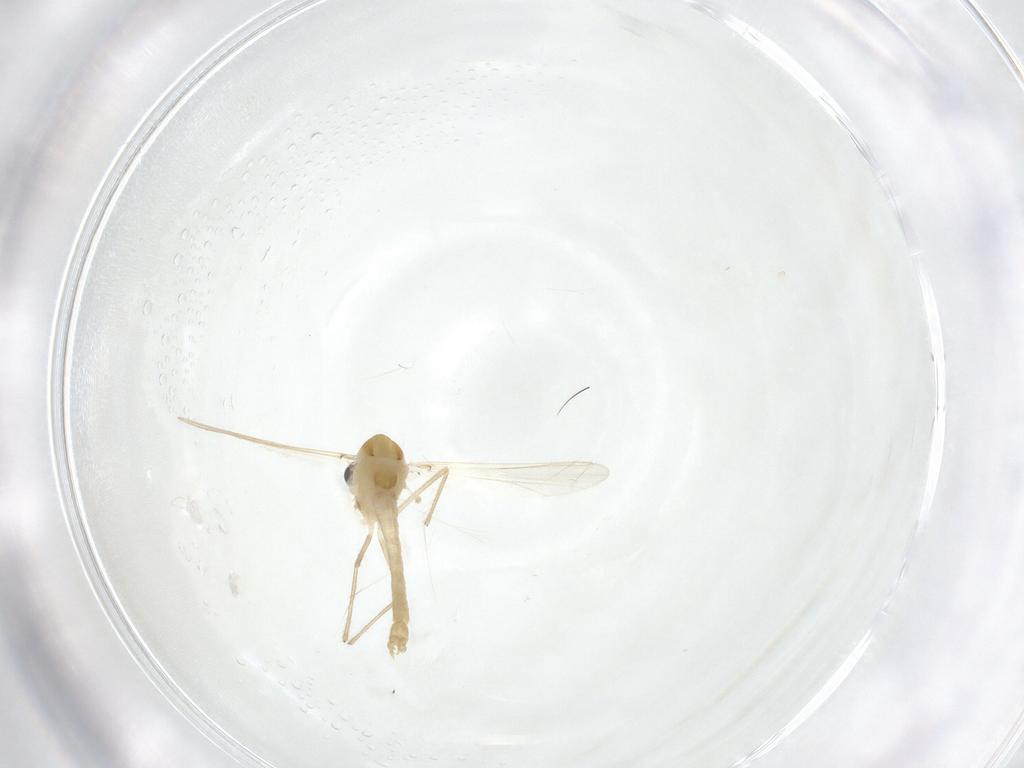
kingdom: Animalia
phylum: Arthropoda
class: Insecta
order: Diptera
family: Chironomidae
